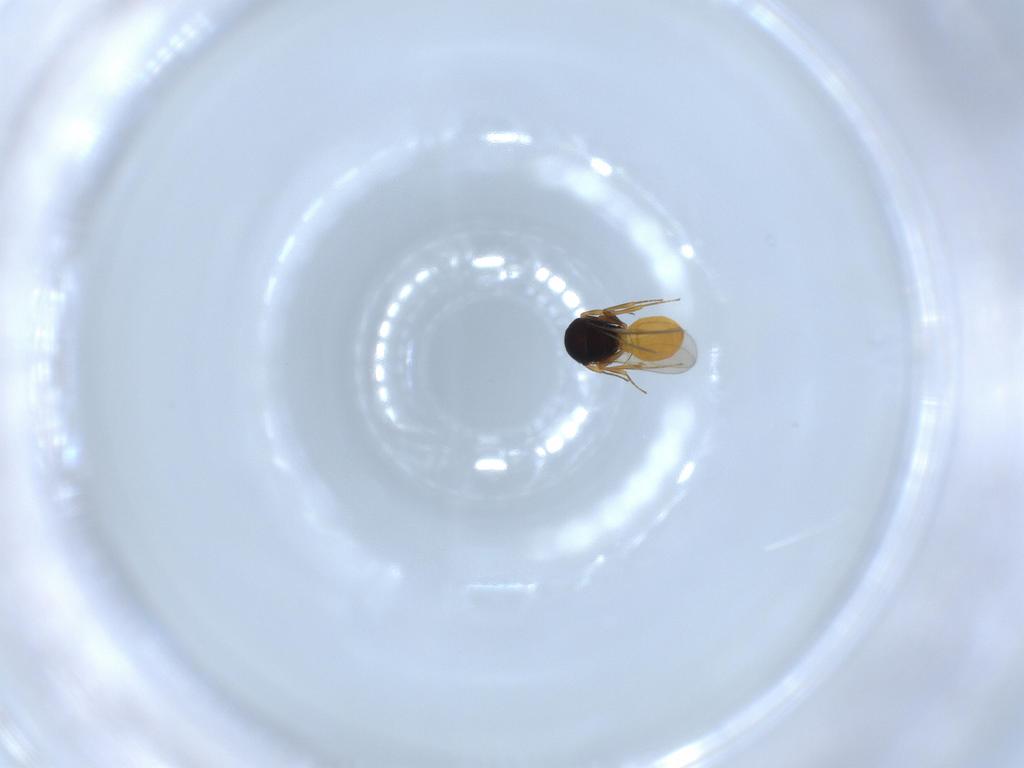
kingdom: Animalia
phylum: Arthropoda
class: Insecta
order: Hymenoptera
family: Scelionidae
